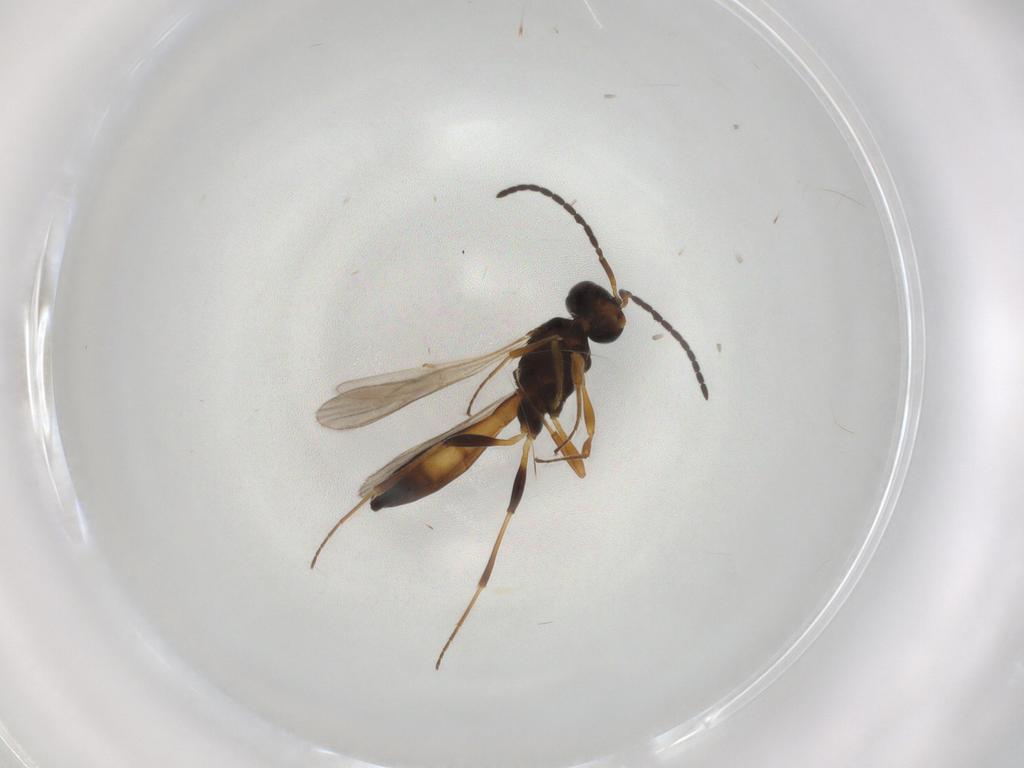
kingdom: Animalia
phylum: Arthropoda
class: Insecta
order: Hymenoptera
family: Scelionidae
